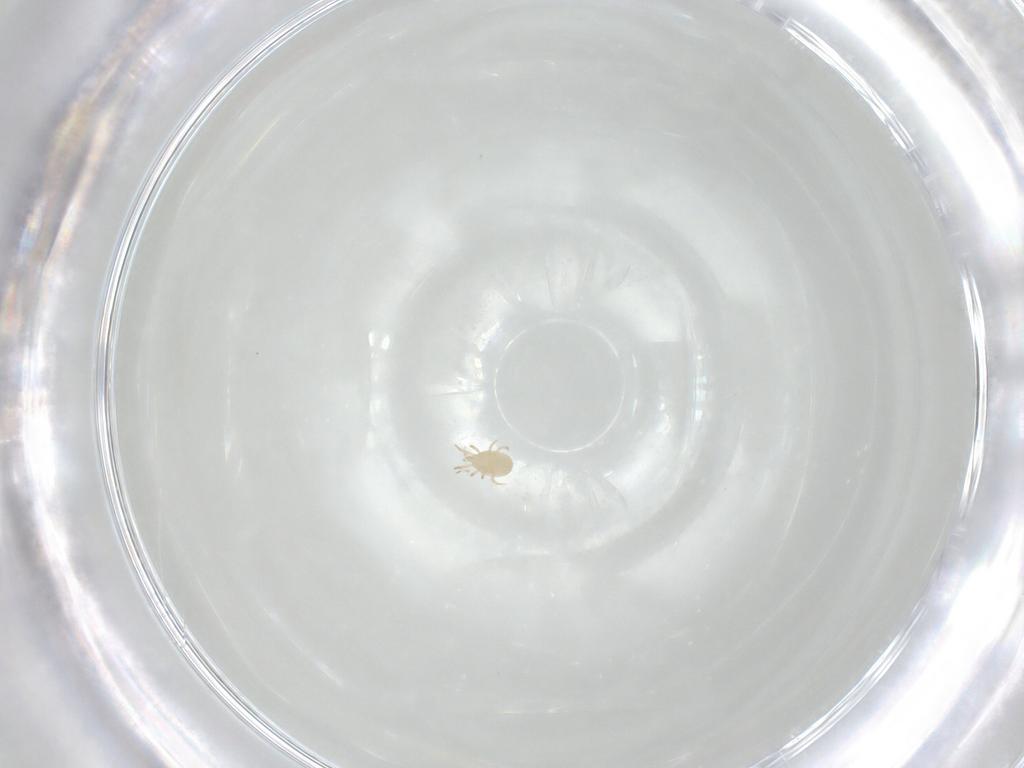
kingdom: Animalia
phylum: Arthropoda
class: Arachnida
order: Mesostigmata
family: Phytoseiidae
